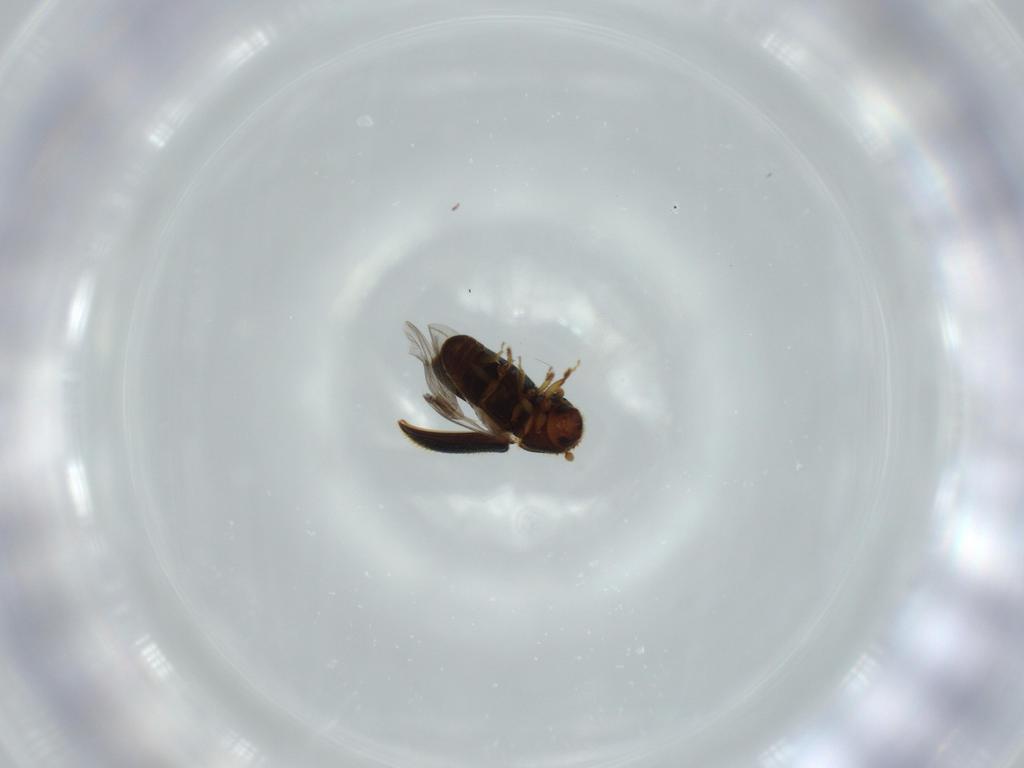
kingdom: Animalia
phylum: Arthropoda
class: Insecta
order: Coleoptera
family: Curculionidae
